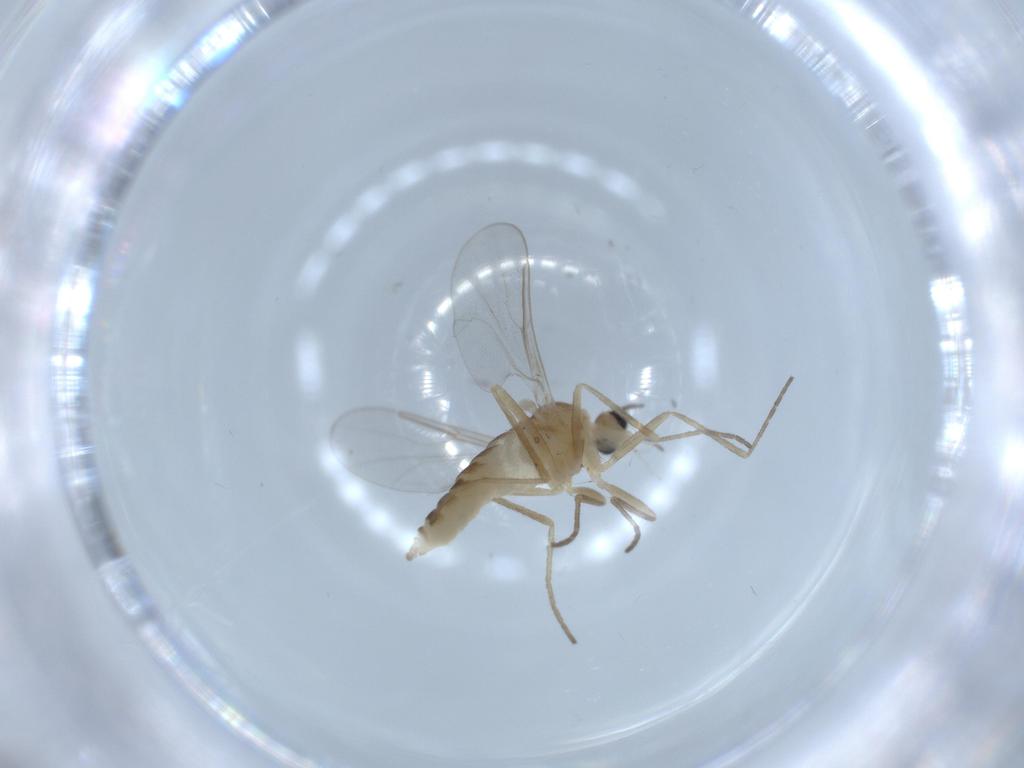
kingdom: Animalia
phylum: Arthropoda
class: Insecta
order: Diptera
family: Cecidomyiidae
